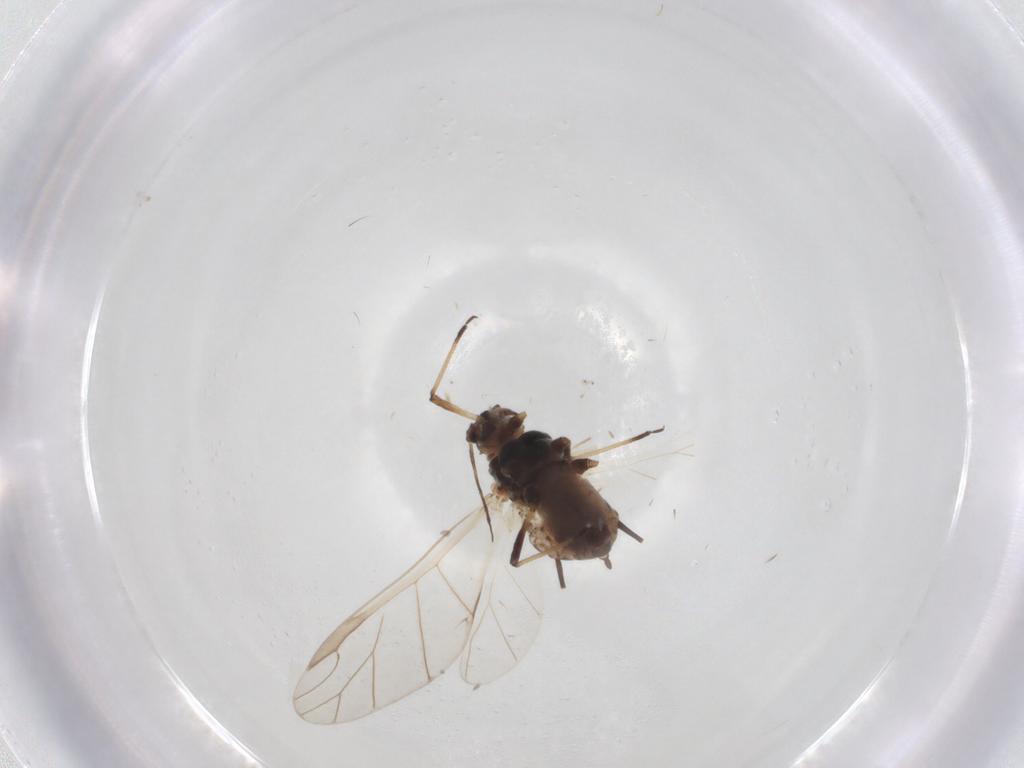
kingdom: Animalia
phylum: Arthropoda
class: Insecta
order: Hemiptera
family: Aphididae
